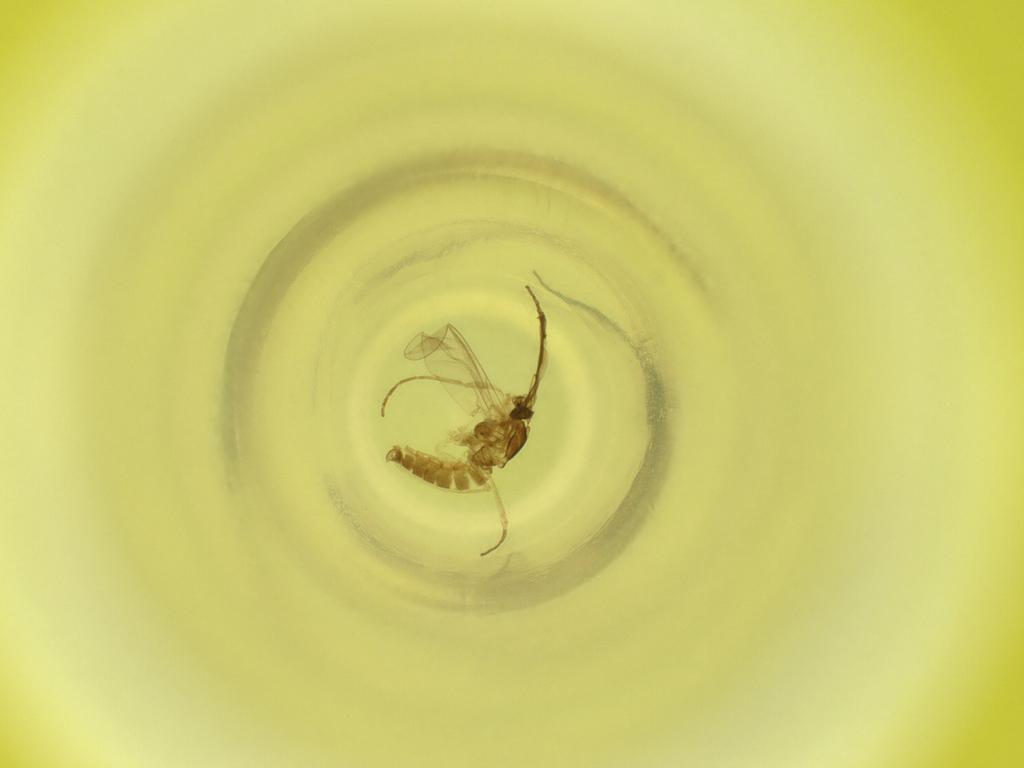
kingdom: Animalia
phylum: Arthropoda
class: Insecta
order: Diptera
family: Cecidomyiidae
